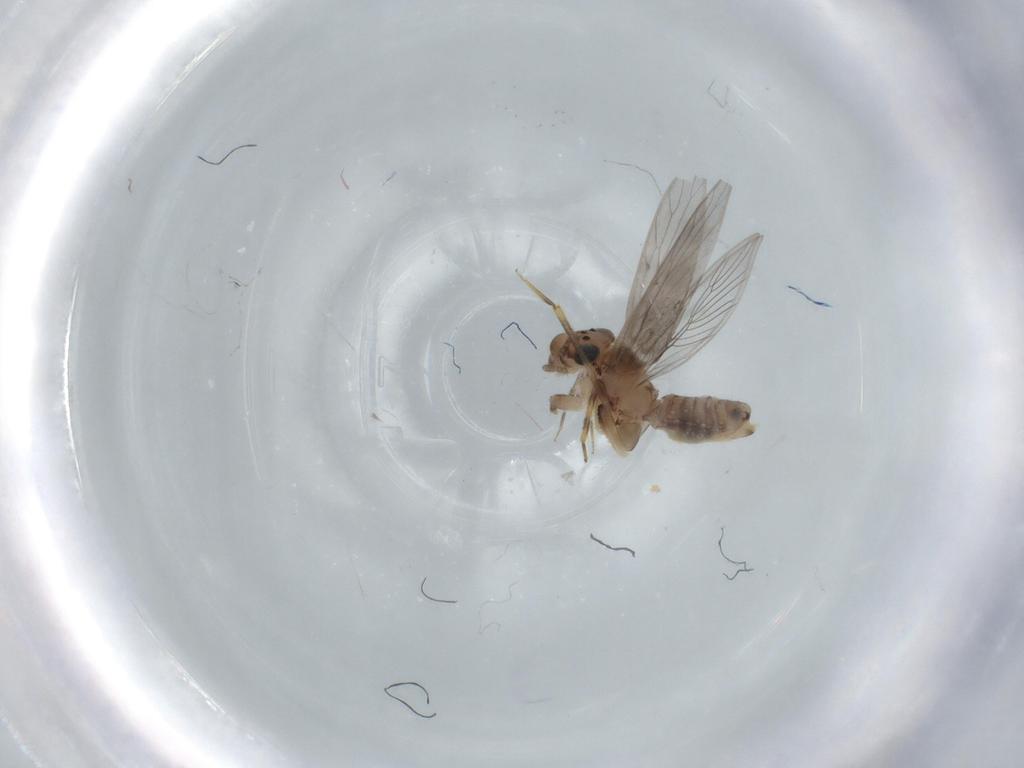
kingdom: Animalia
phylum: Arthropoda
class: Insecta
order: Psocodea
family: Lepidopsocidae
